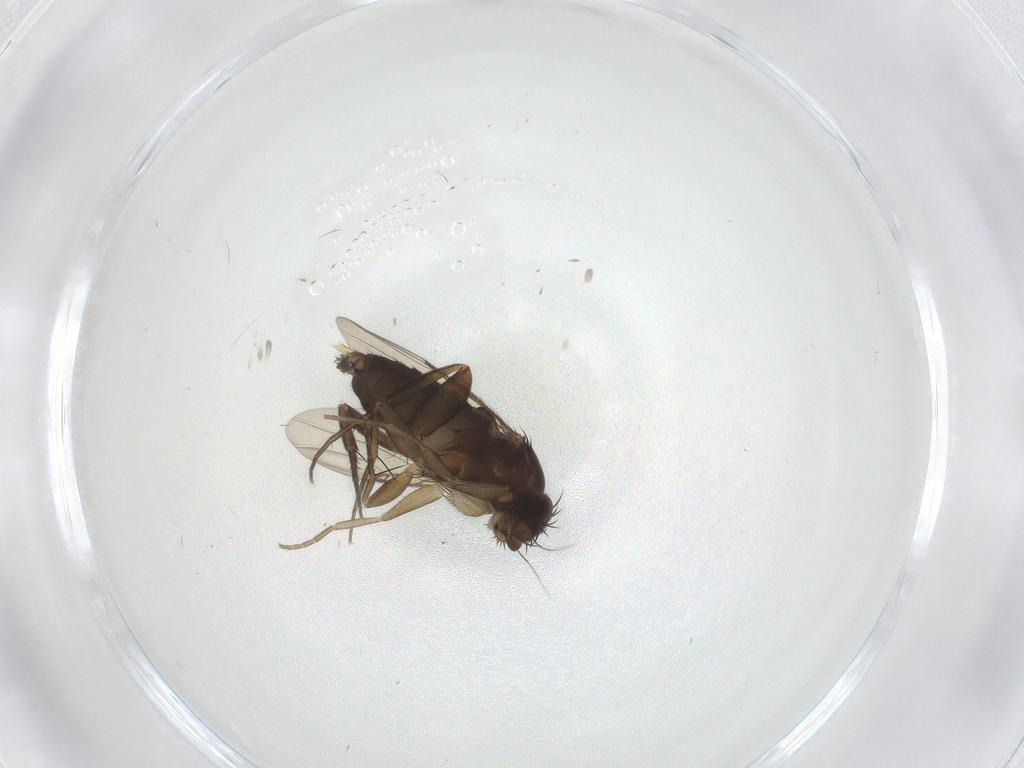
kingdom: Animalia
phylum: Arthropoda
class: Insecta
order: Diptera
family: Phoridae
